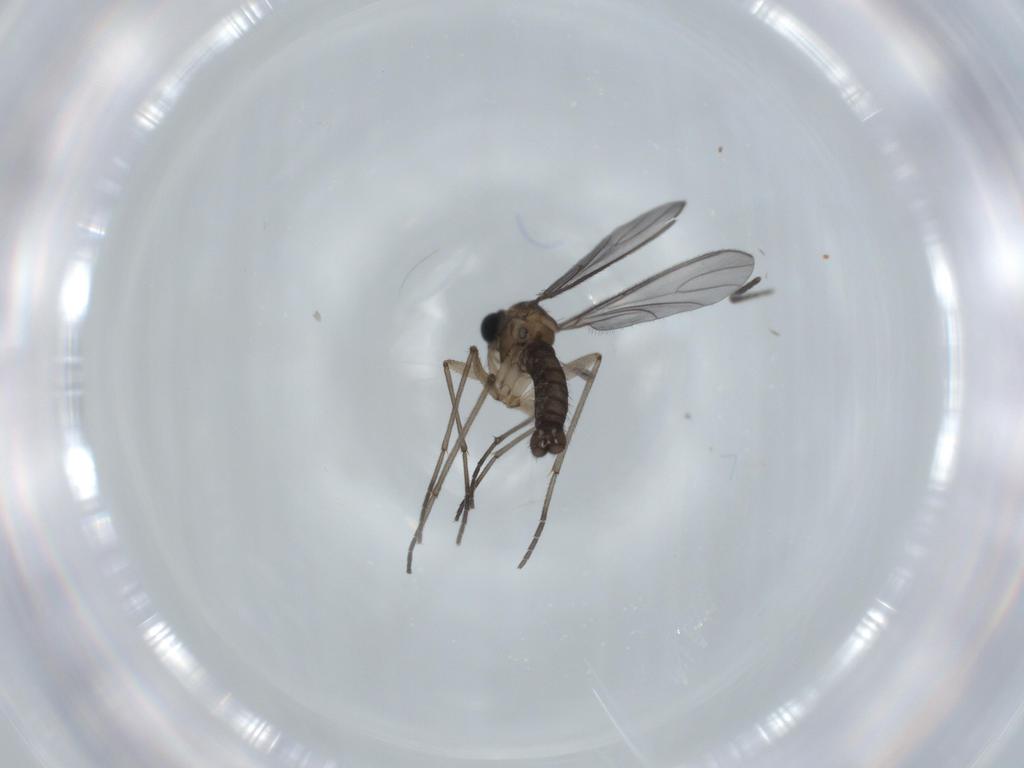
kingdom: Animalia
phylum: Arthropoda
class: Insecta
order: Diptera
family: Sciaridae
